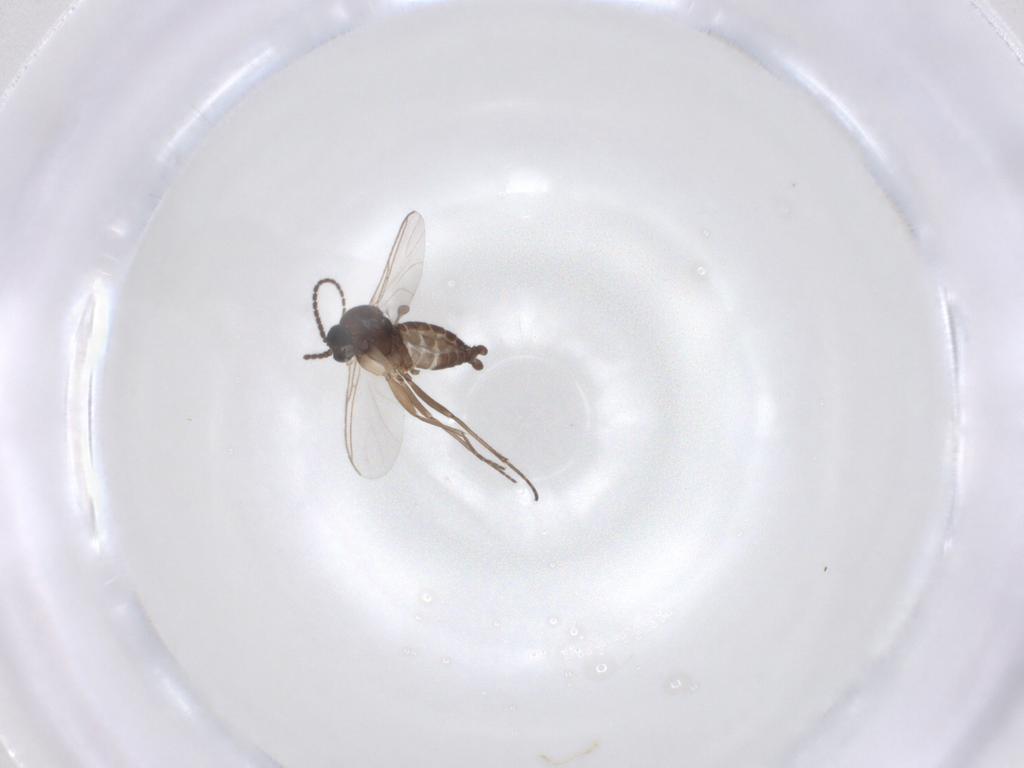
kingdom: Animalia
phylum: Arthropoda
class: Insecta
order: Diptera
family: Sciaridae
